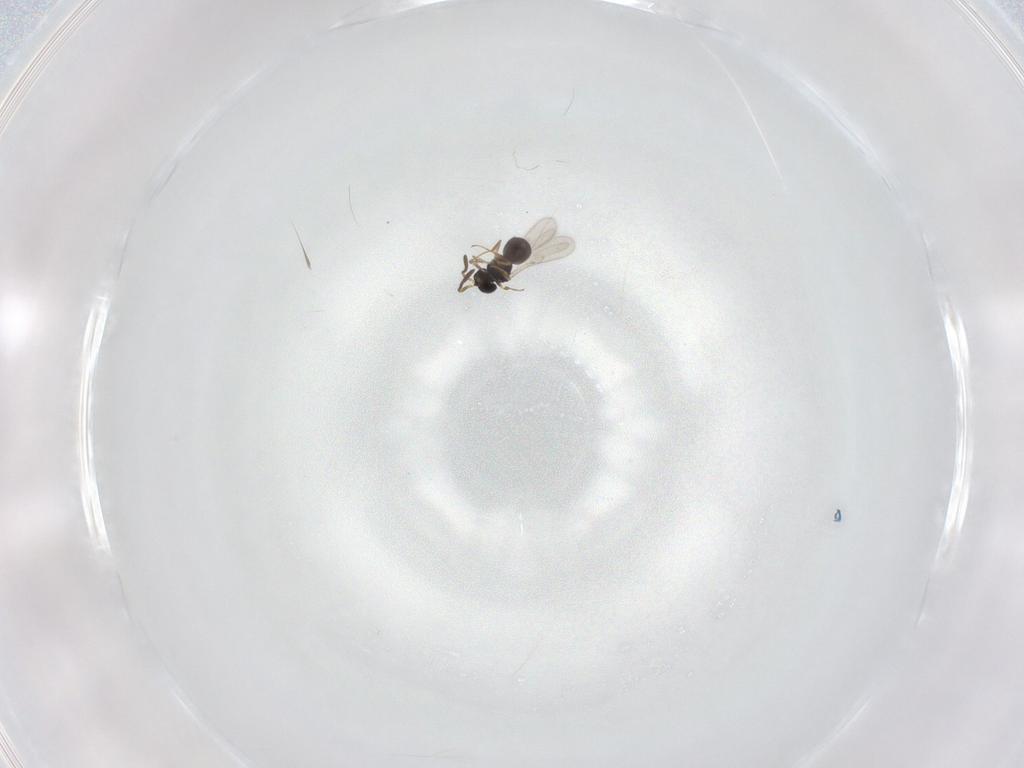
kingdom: Animalia
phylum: Arthropoda
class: Insecta
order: Hymenoptera
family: Scelionidae
